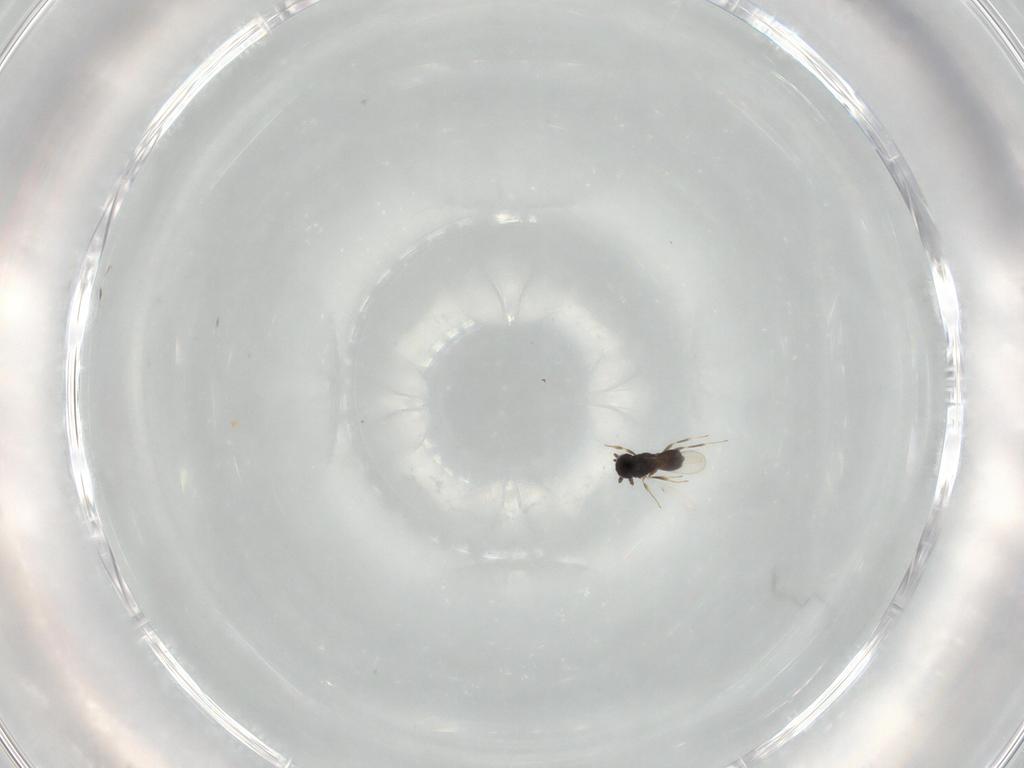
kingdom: Animalia
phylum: Arthropoda
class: Insecta
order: Hymenoptera
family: Scelionidae
